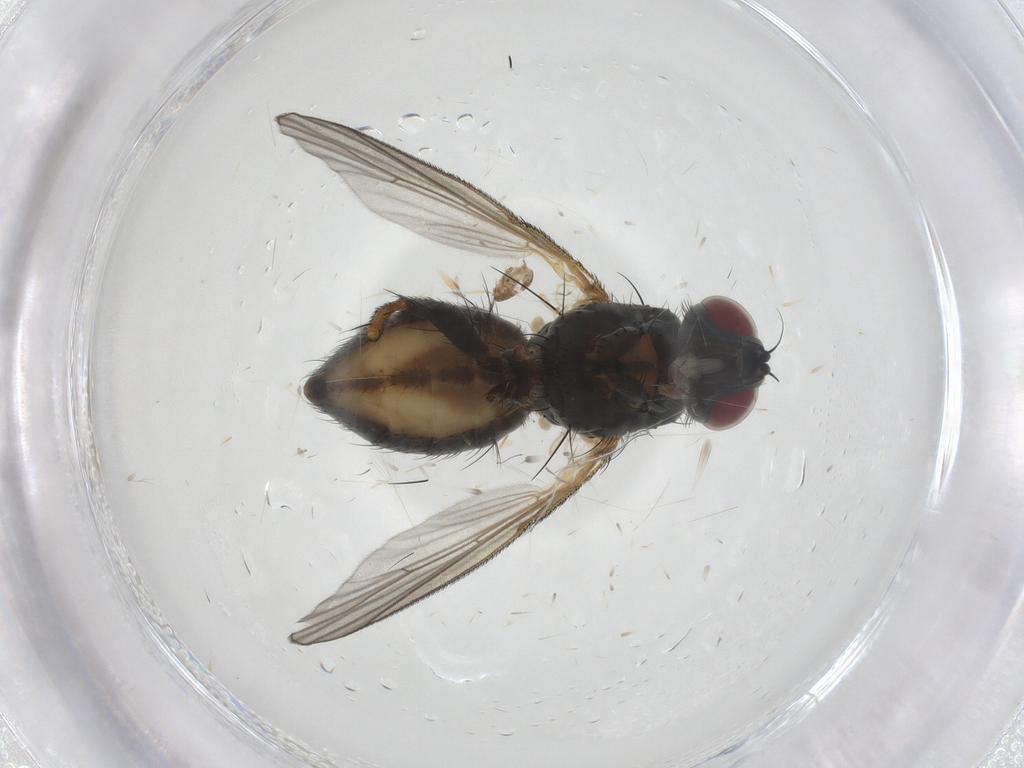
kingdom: Animalia
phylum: Arthropoda
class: Insecta
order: Diptera
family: Muscidae
